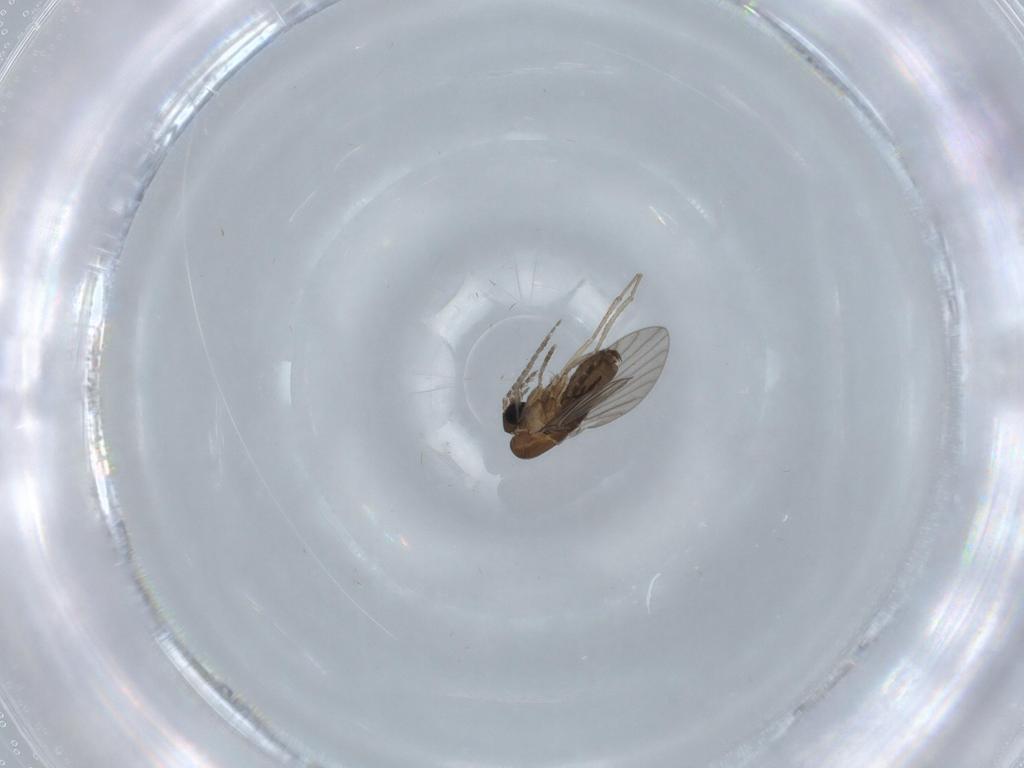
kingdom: Animalia
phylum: Arthropoda
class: Insecta
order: Diptera
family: Psychodidae
